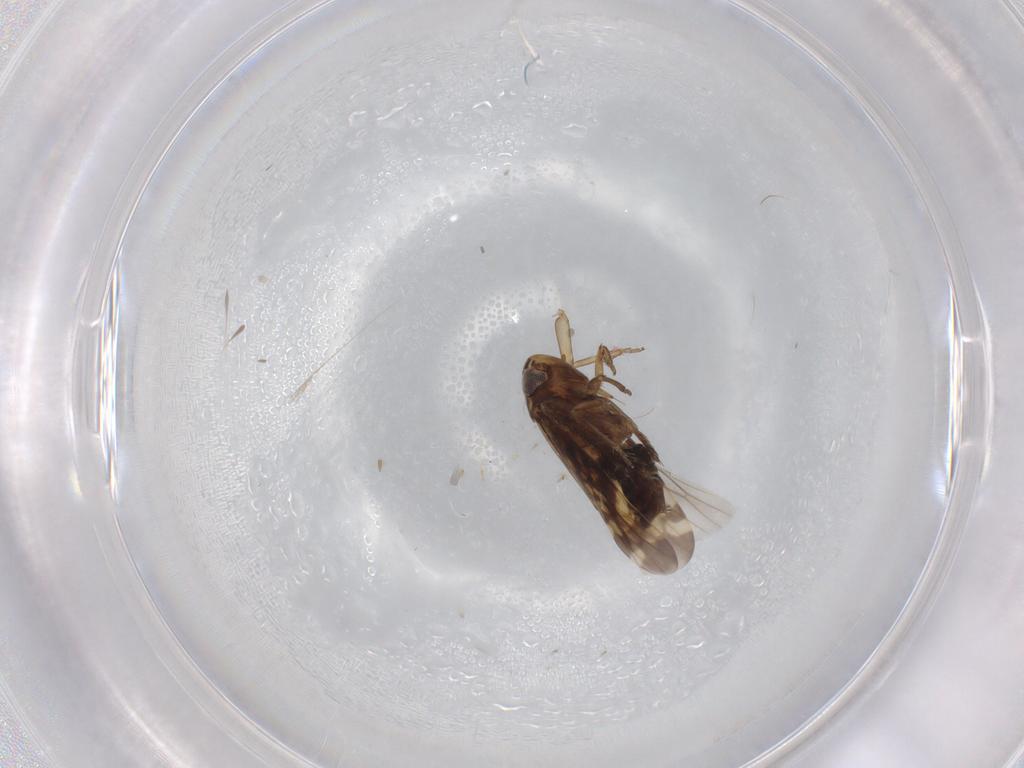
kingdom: Animalia
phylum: Arthropoda
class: Insecta
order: Hemiptera
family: Cicadellidae
